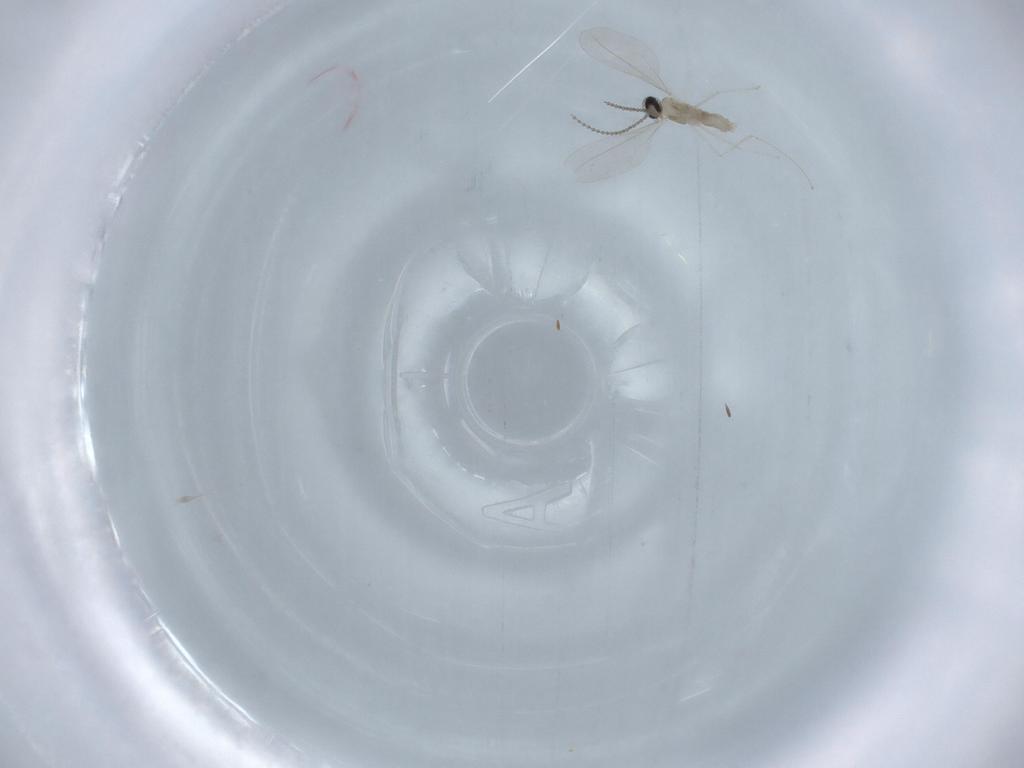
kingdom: Animalia
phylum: Arthropoda
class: Insecta
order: Diptera
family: Cecidomyiidae
